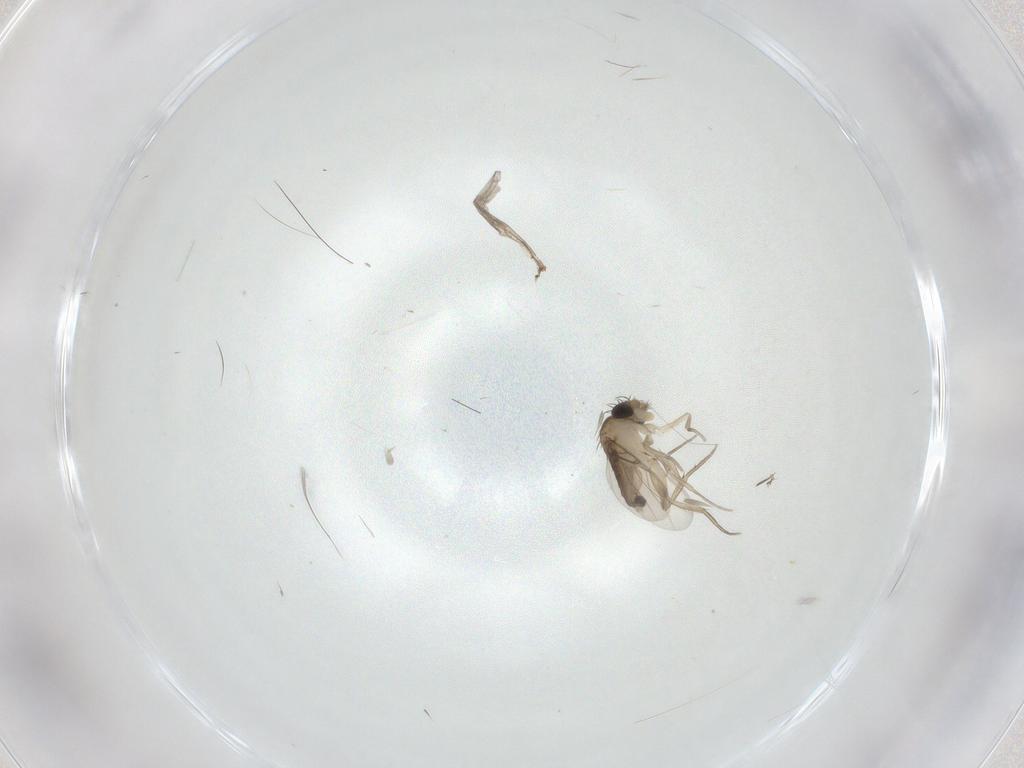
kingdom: Animalia
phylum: Arthropoda
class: Insecta
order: Diptera
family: Phoridae
